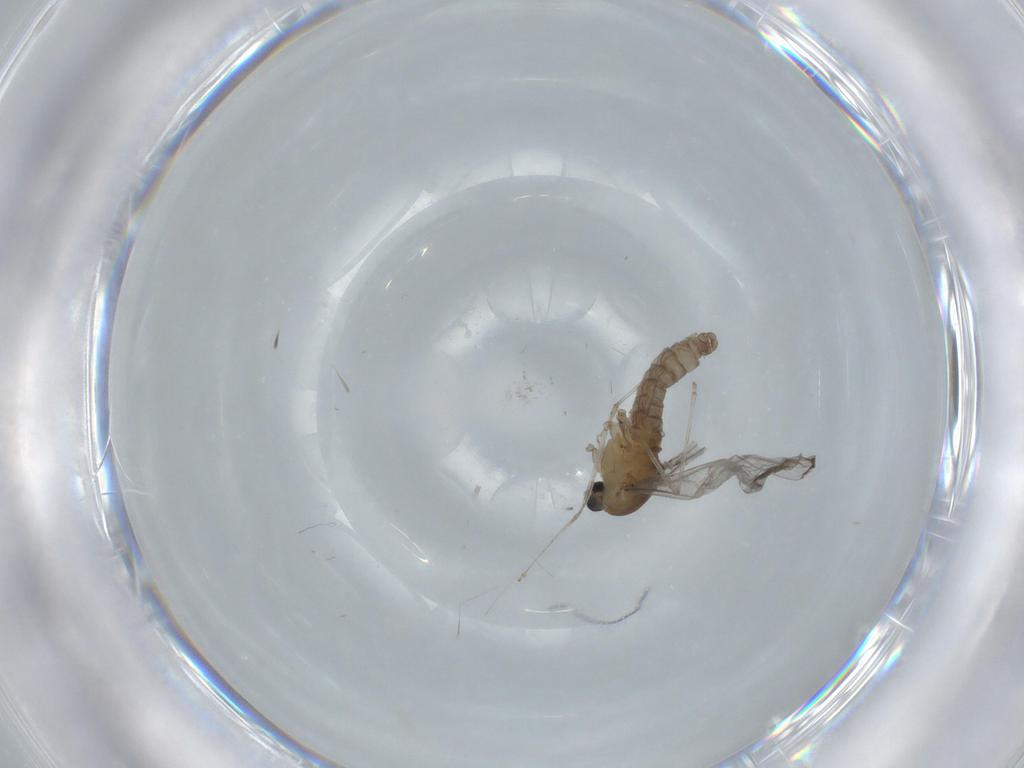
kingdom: Animalia
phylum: Arthropoda
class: Insecta
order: Diptera
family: Cecidomyiidae
